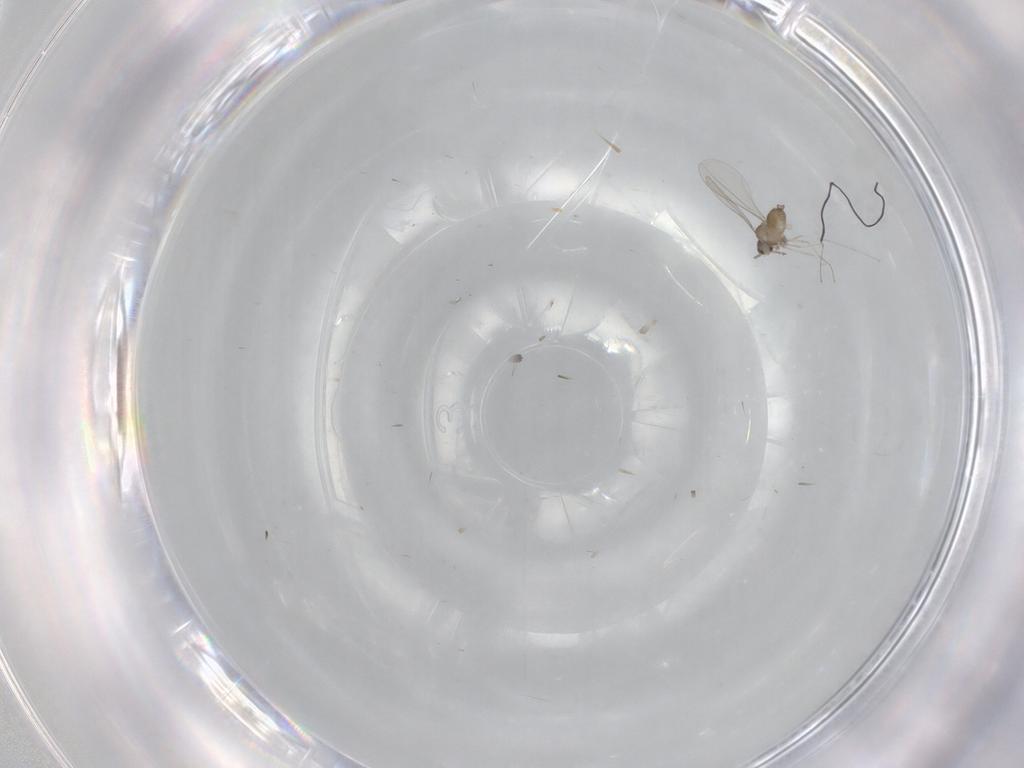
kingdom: Animalia
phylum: Arthropoda
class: Insecta
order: Diptera
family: Cecidomyiidae
